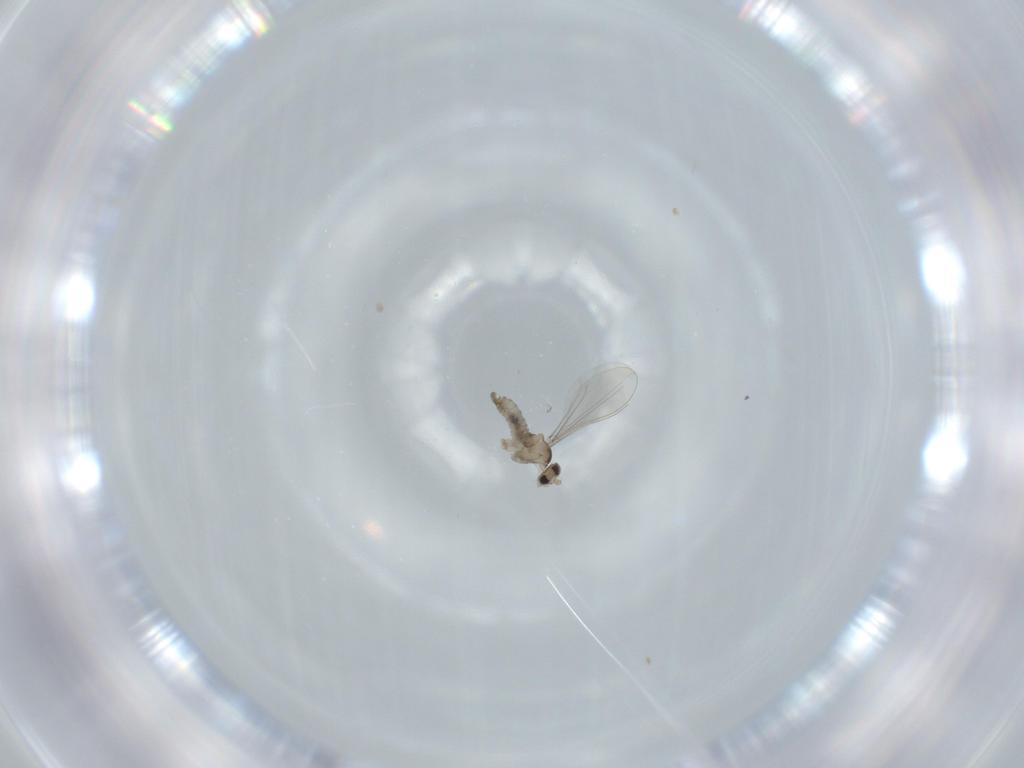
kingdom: Animalia
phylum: Arthropoda
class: Insecta
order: Diptera
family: Cecidomyiidae
